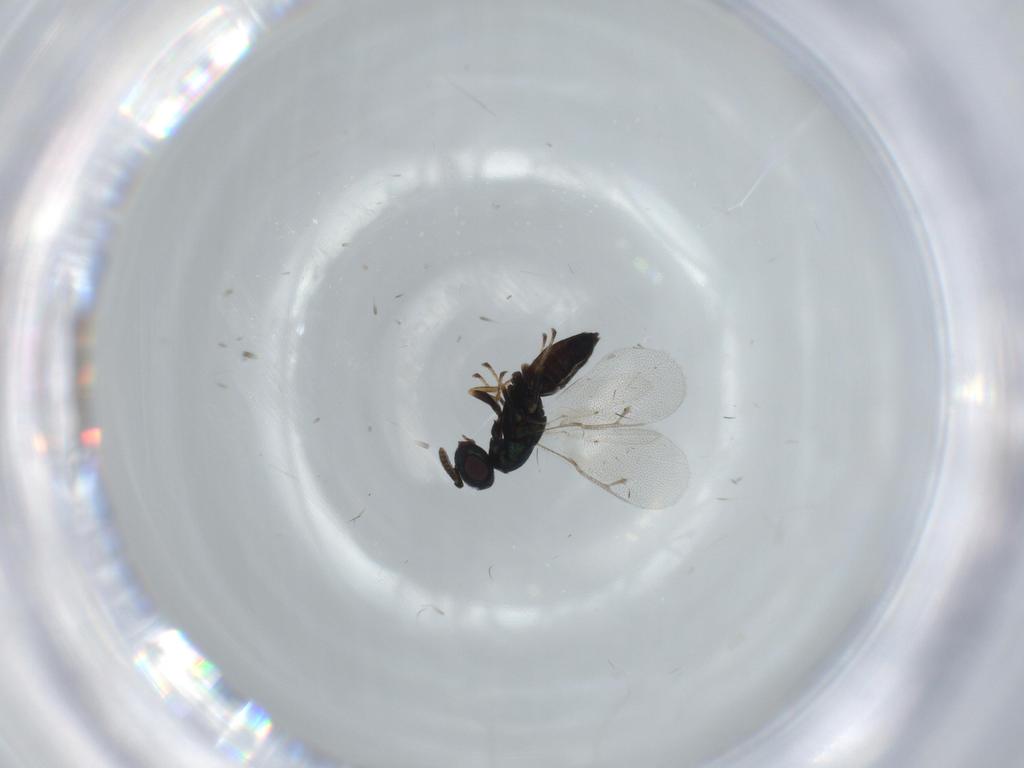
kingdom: Animalia
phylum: Arthropoda
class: Insecta
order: Hymenoptera
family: Pteromalidae
